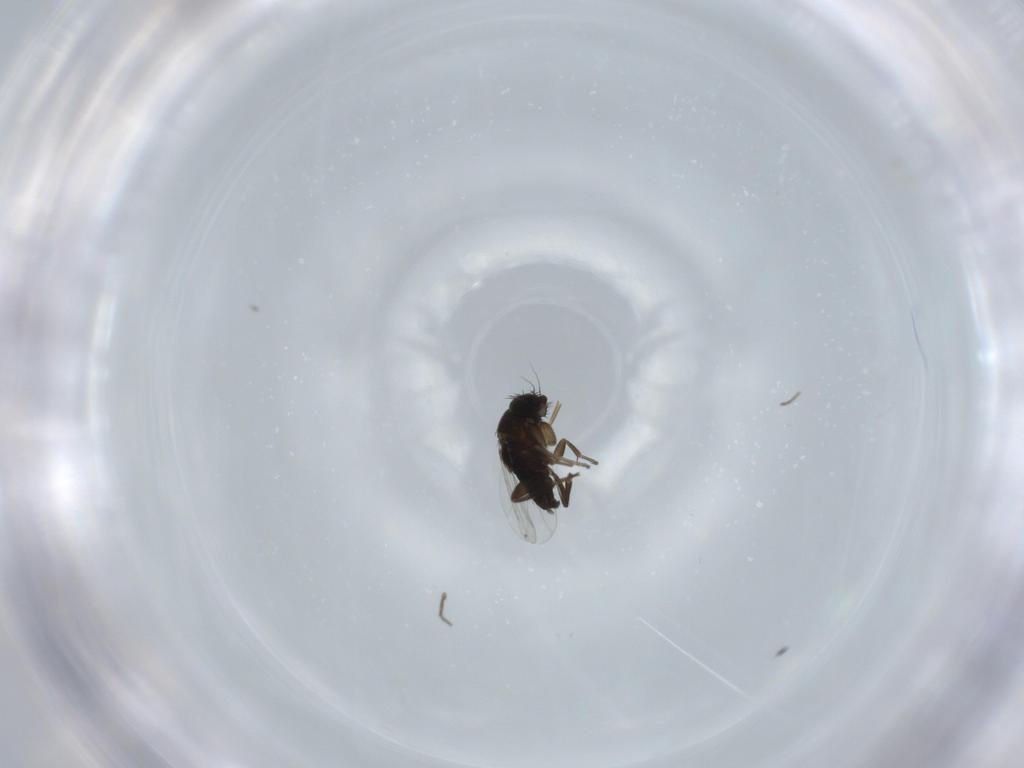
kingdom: Animalia
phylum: Arthropoda
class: Insecta
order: Diptera
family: Phoridae
